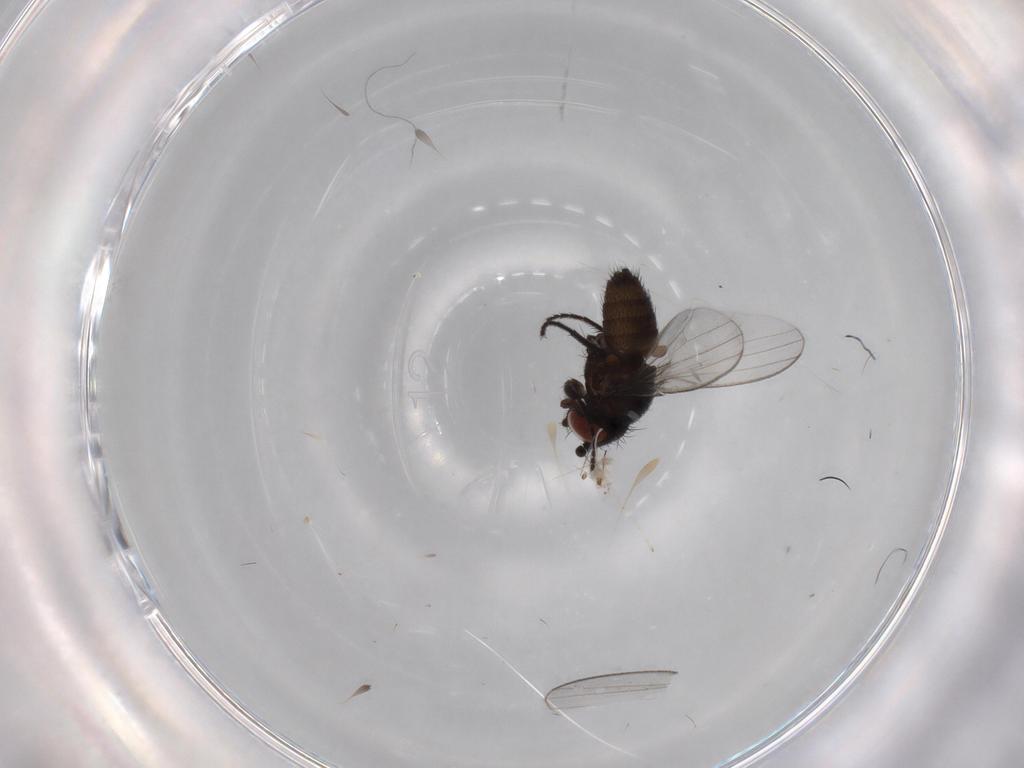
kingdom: Animalia
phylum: Arthropoda
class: Insecta
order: Diptera
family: Milichiidae
